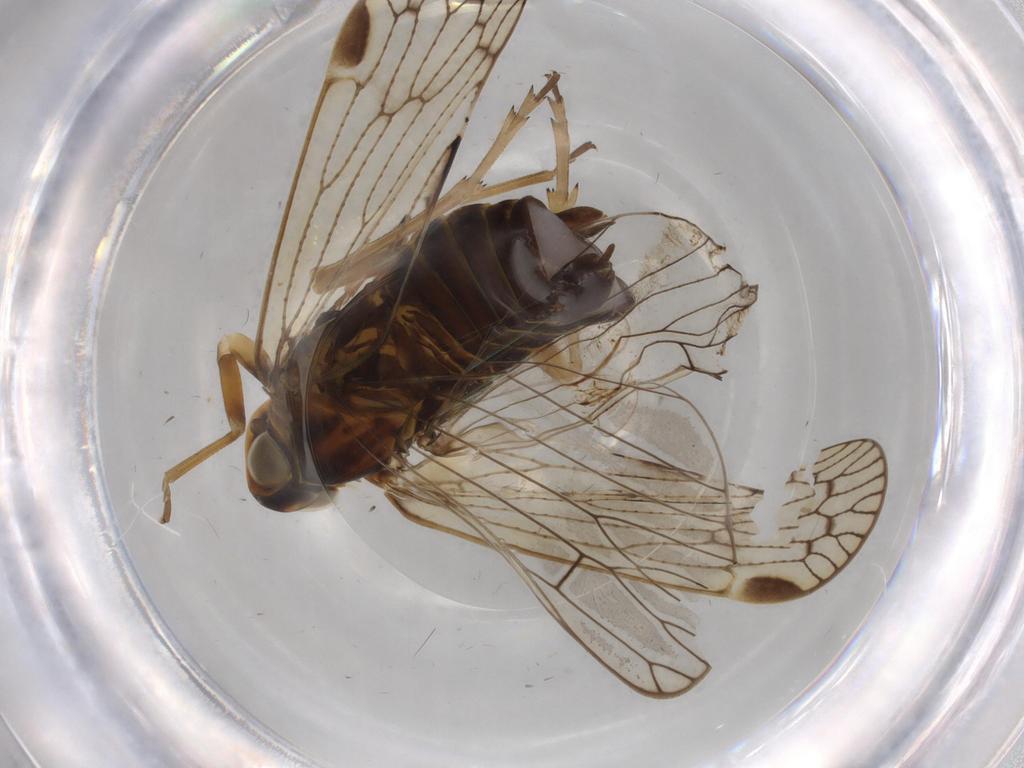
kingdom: Animalia
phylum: Arthropoda
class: Insecta
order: Hemiptera
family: Cixiidae
